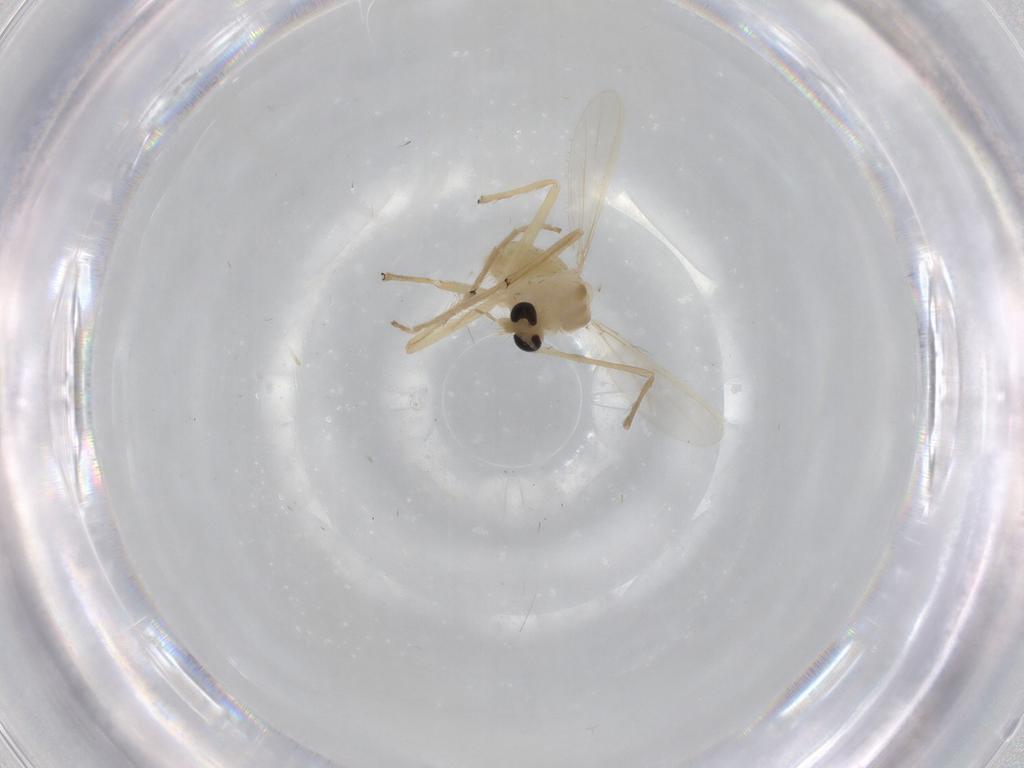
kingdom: Animalia
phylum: Arthropoda
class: Insecta
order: Diptera
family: Chironomidae
